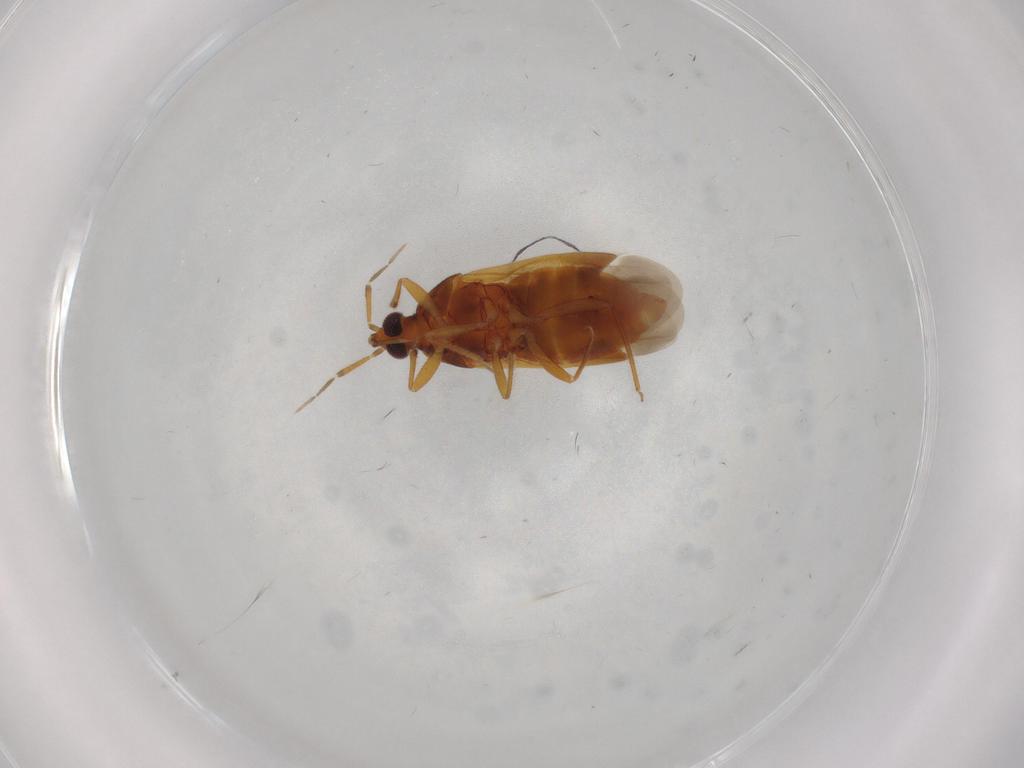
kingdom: Animalia
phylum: Arthropoda
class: Insecta
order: Hemiptera
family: Anthocoridae
